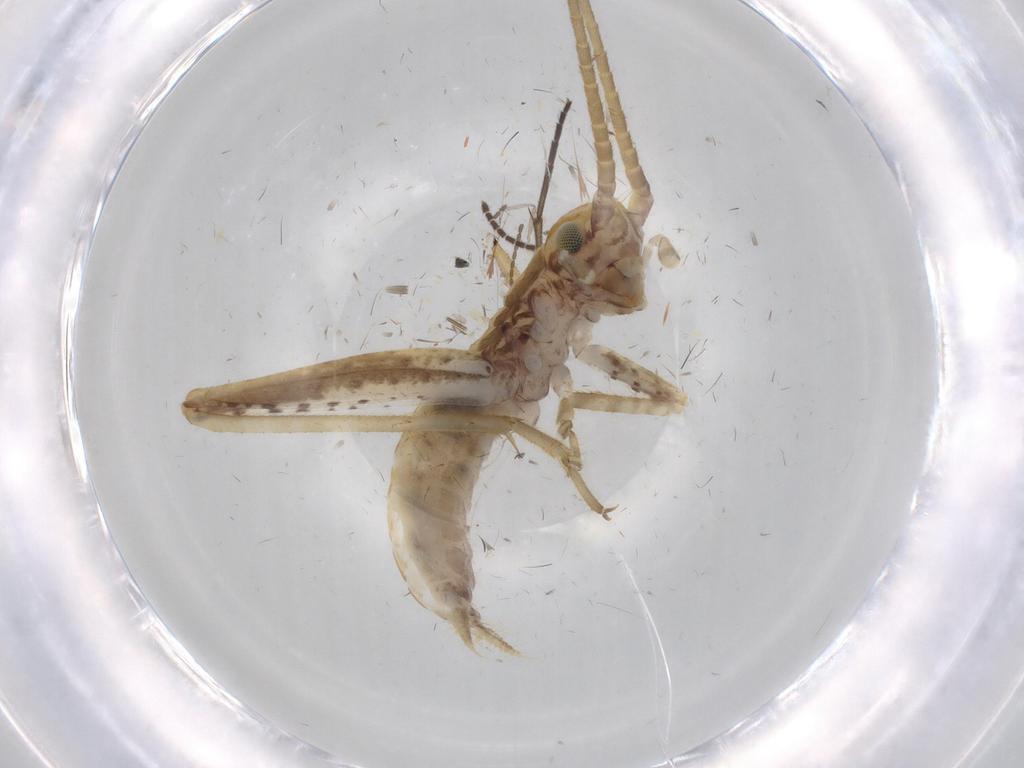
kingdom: Animalia
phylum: Arthropoda
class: Insecta
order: Orthoptera
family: Gryllidae
